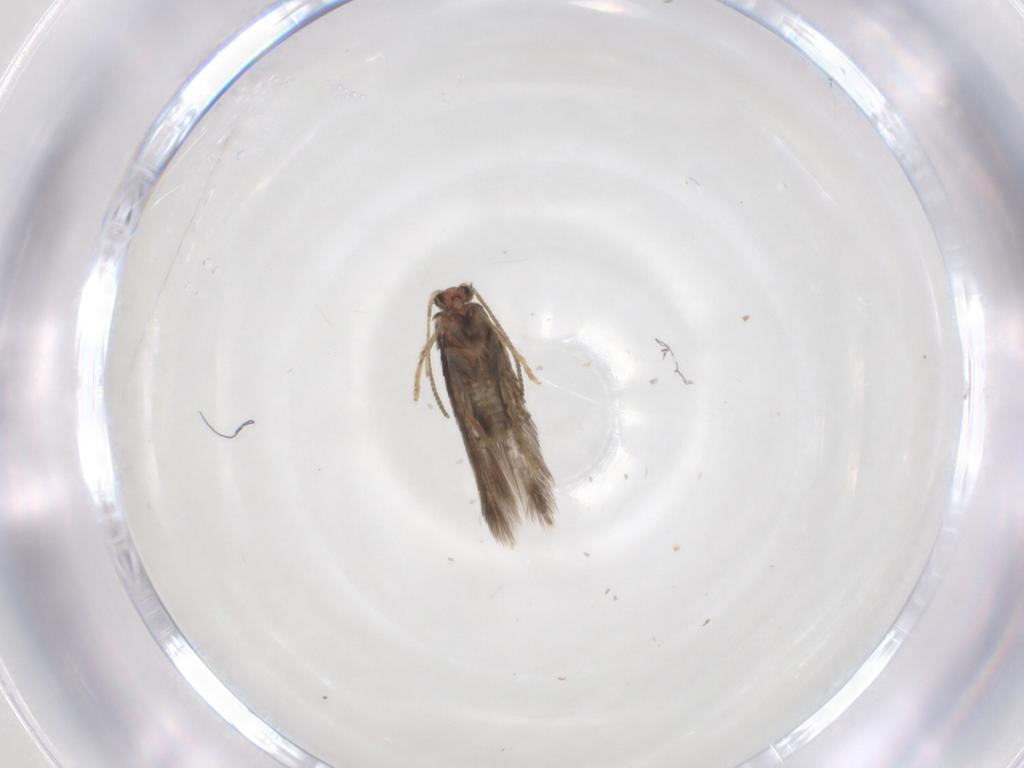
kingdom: Animalia
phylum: Arthropoda
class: Insecta
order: Lepidoptera
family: Nepticulidae
